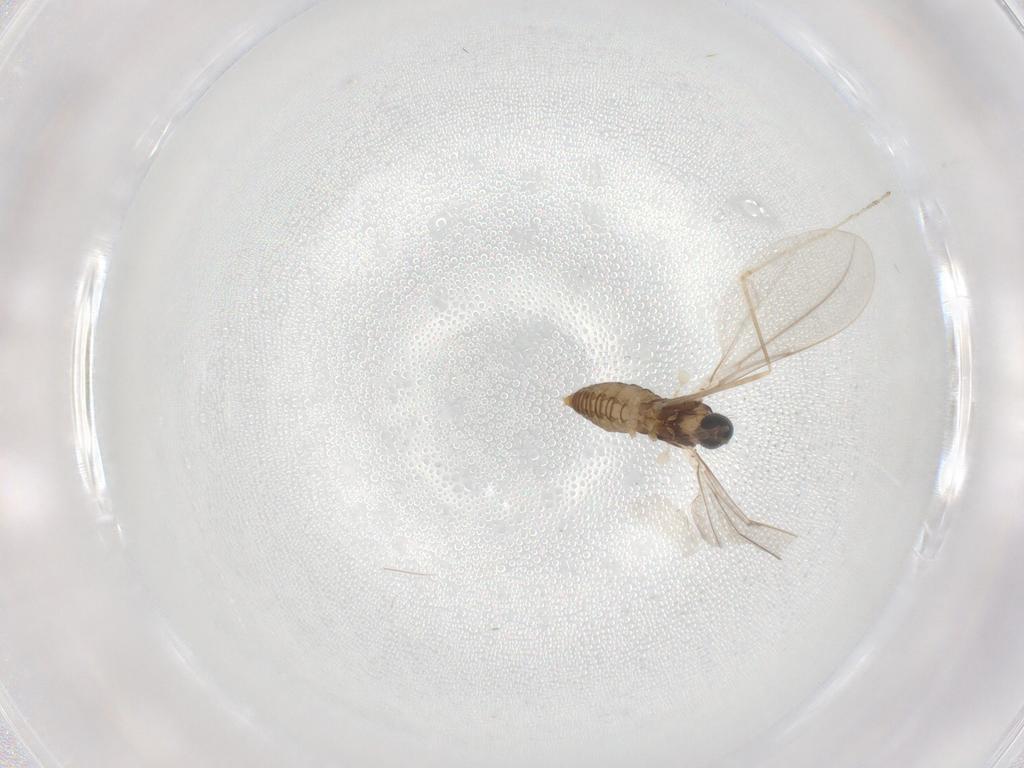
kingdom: Animalia
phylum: Arthropoda
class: Insecta
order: Diptera
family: Cecidomyiidae
